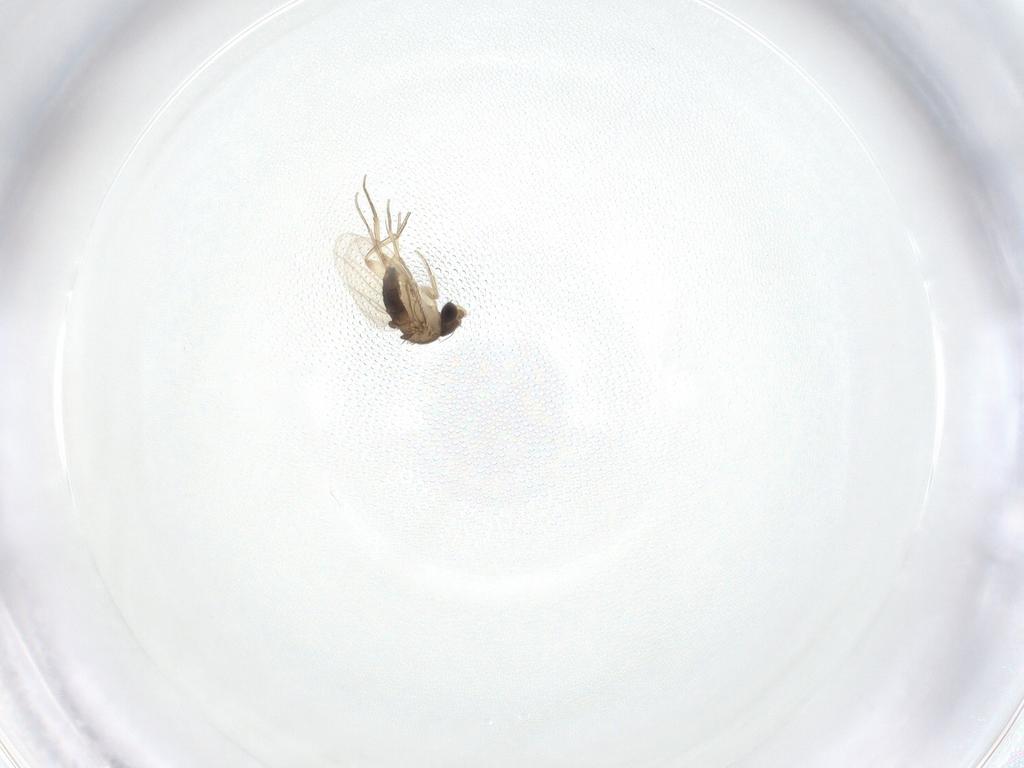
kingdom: Animalia
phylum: Arthropoda
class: Insecta
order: Diptera
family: Phoridae
